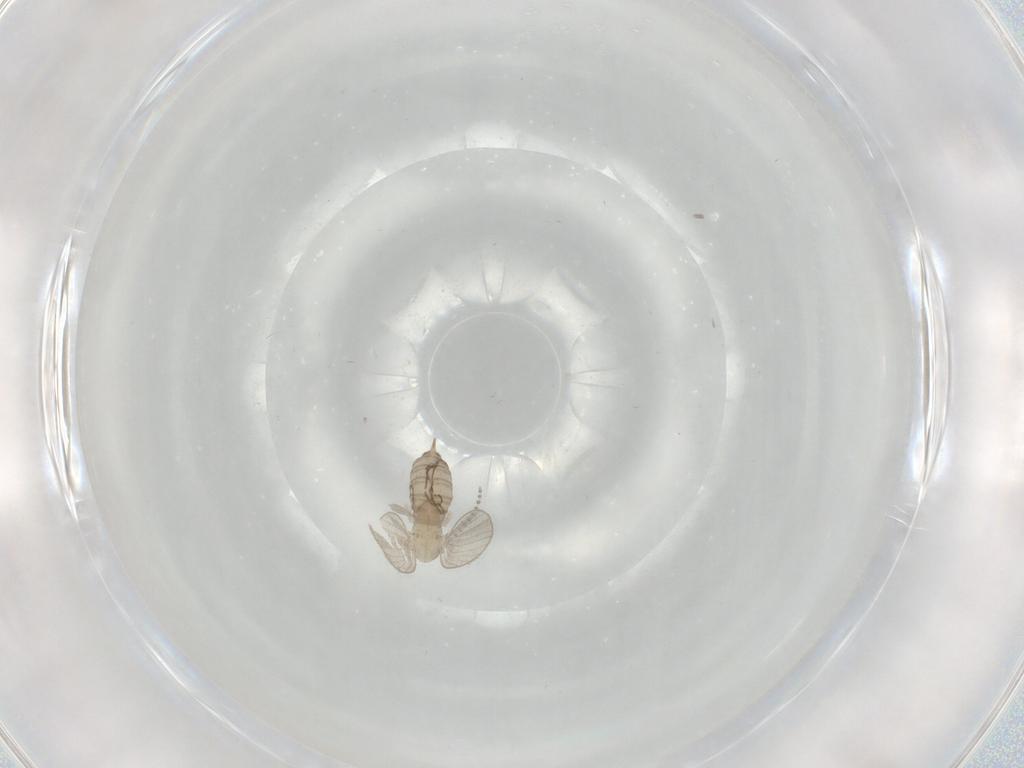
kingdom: Animalia
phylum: Arthropoda
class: Insecta
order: Diptera
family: Psychodidae
